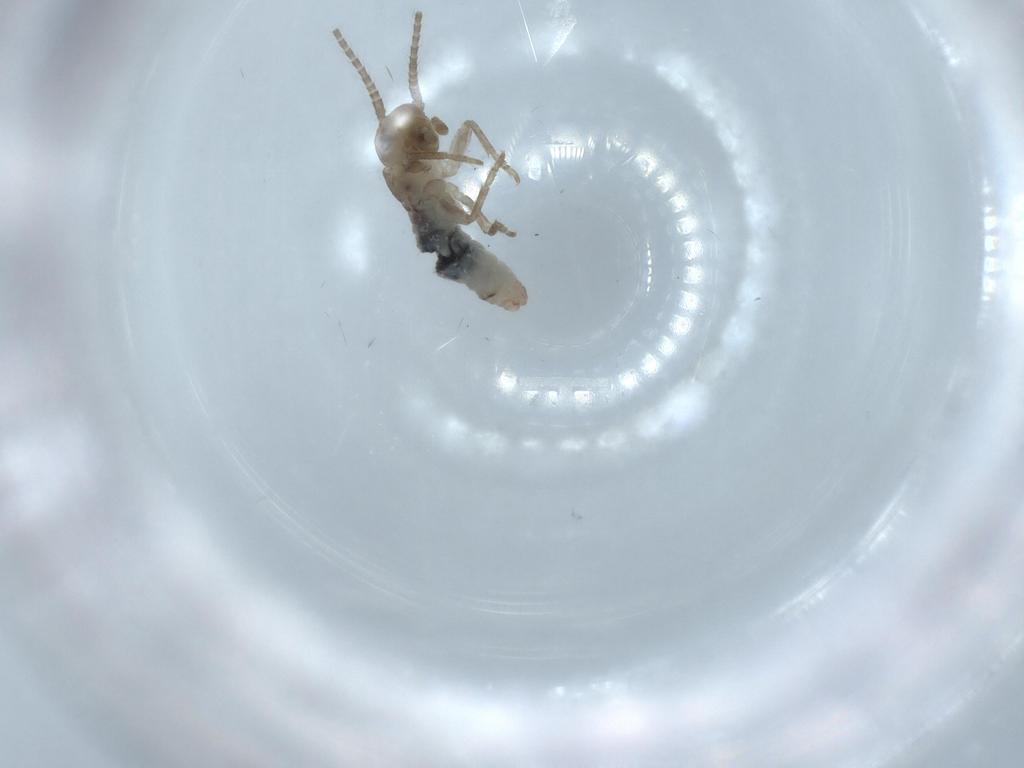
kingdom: Animalia
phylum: Arthropoda
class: Insecta
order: Orthoptera
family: Mogoplistidae
